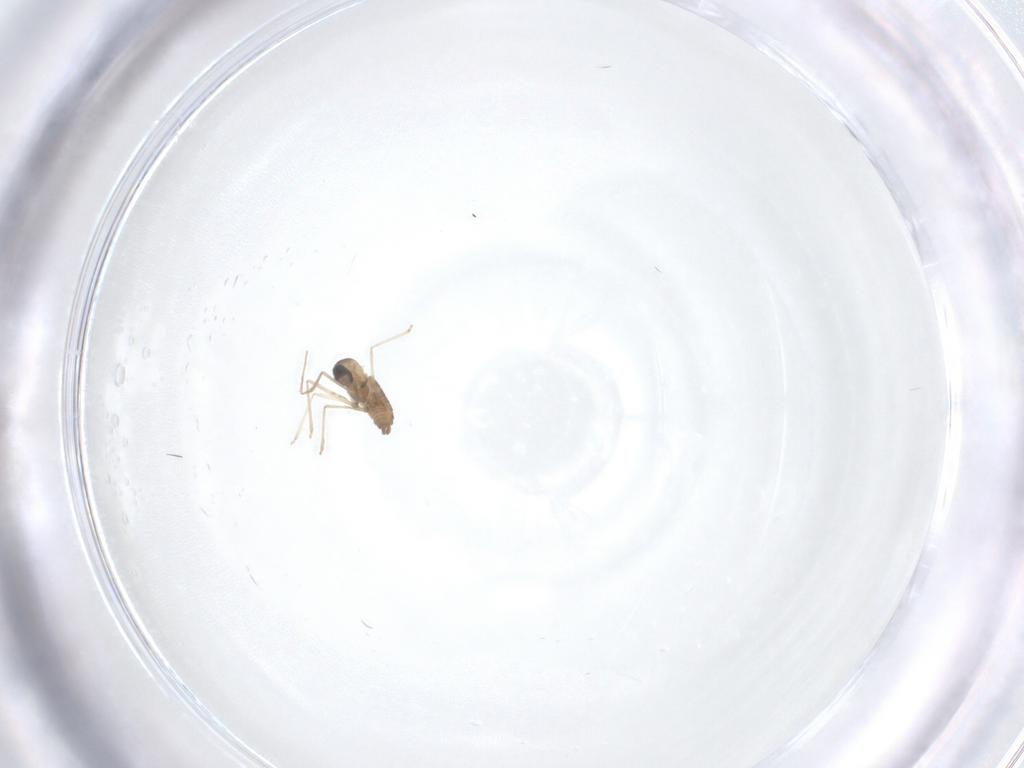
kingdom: Animalia
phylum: Arthropoda
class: Insecta
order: Diptera
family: Cecidomyiidae
